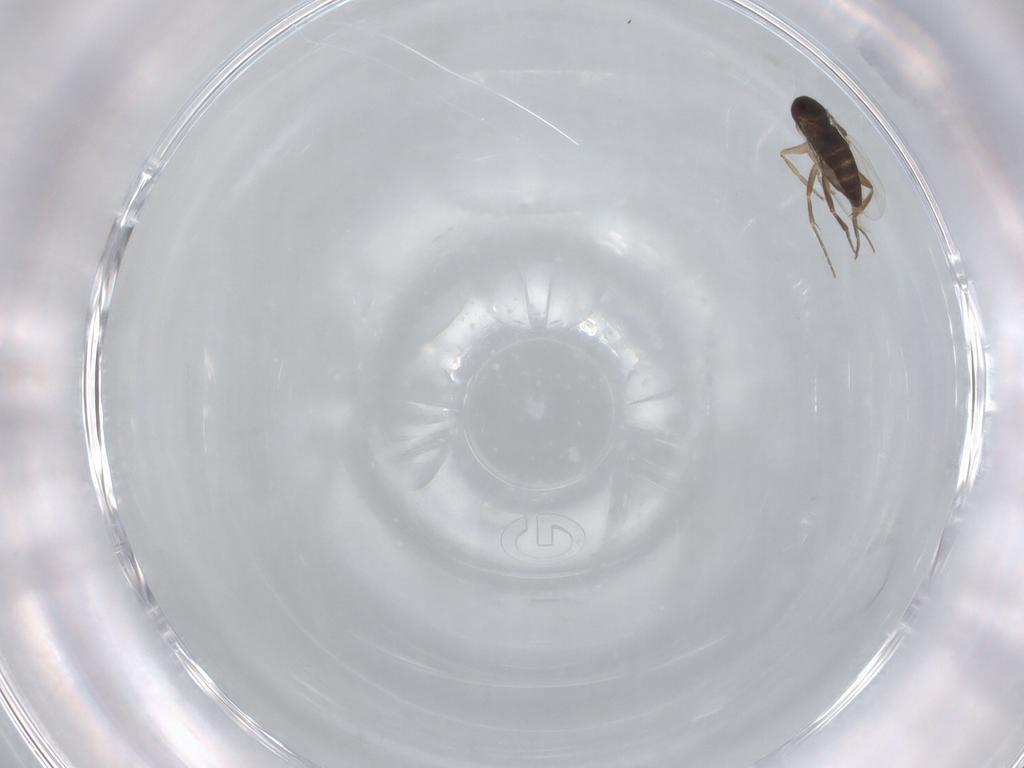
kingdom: Animalia
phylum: Arthropoda
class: Insecta
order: Diptera
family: Phoridae
